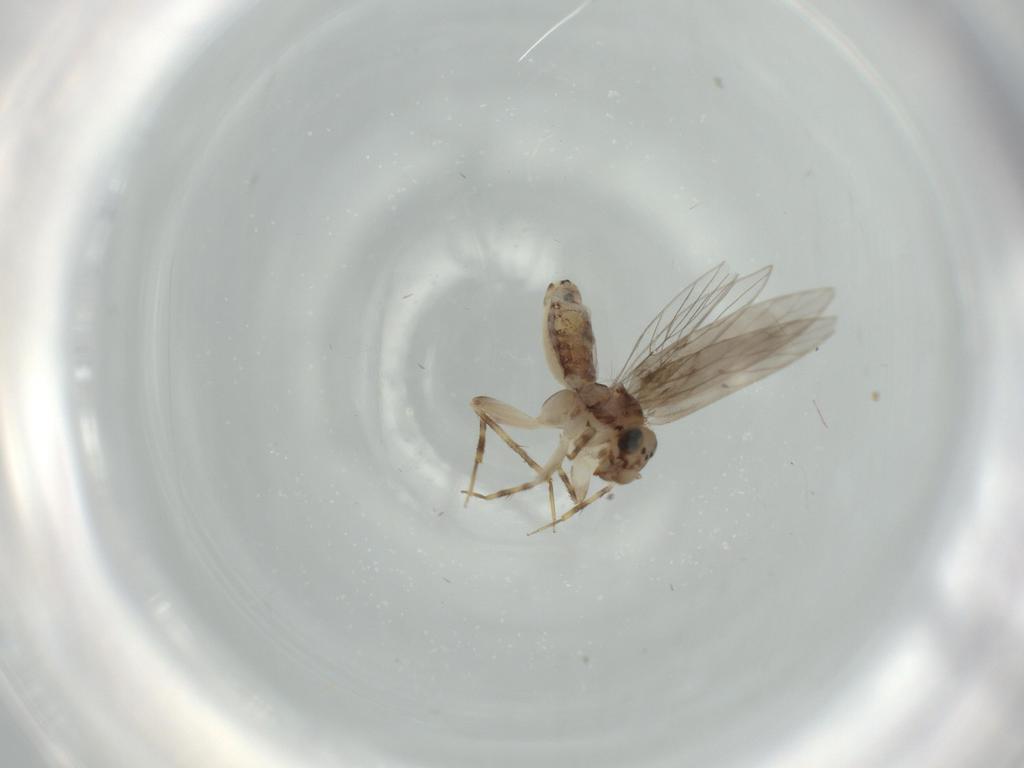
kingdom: Animalia
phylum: Arthropoda
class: Insecta
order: Psocodea
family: Lepidopsocidae
